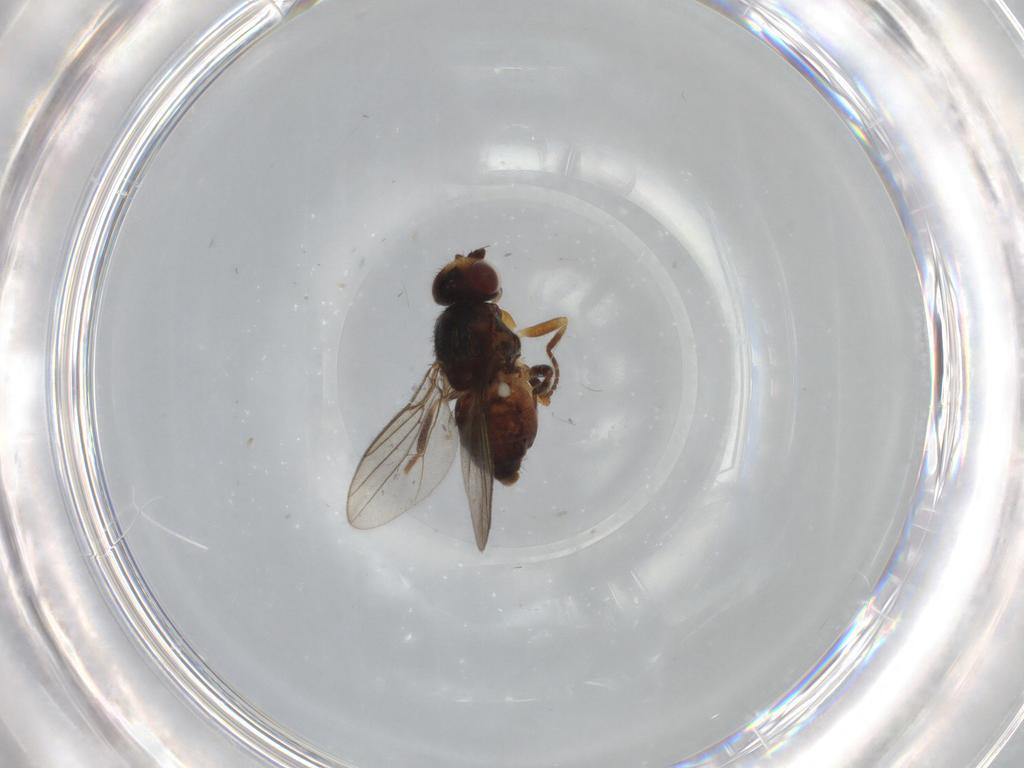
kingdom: Animalia
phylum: Arthropoda
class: Insecta
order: Diptera
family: Chloropidae
